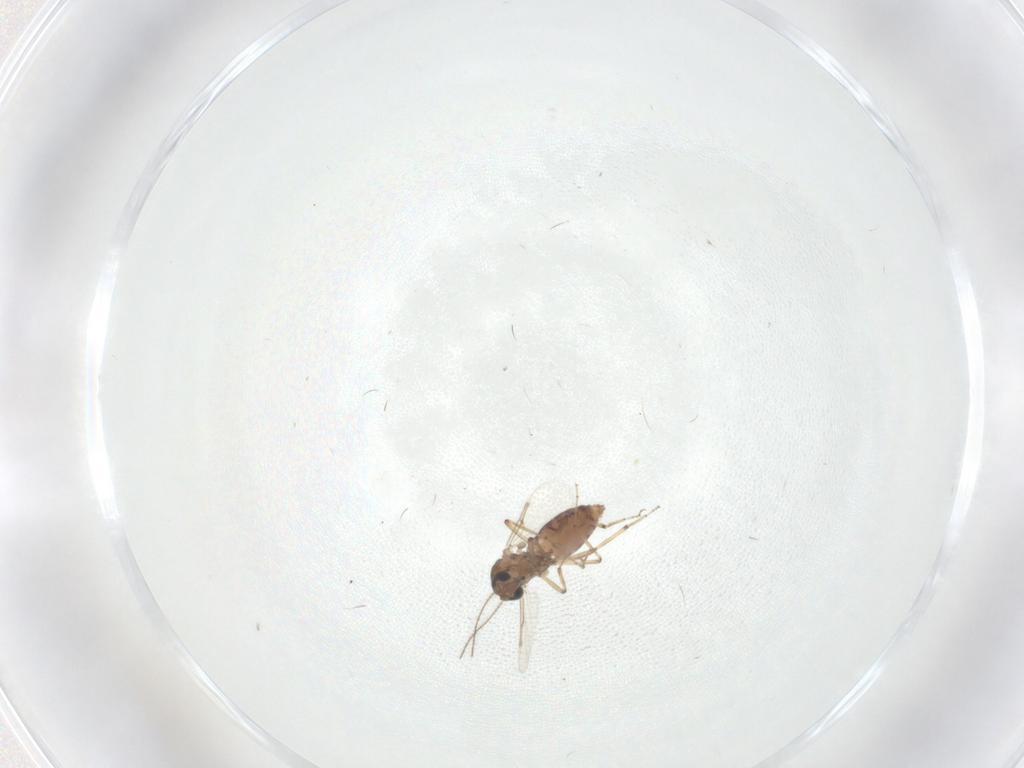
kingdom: Animalia
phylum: Arthropoda
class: Insecta
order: Diptera
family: Ceratopogonidae
